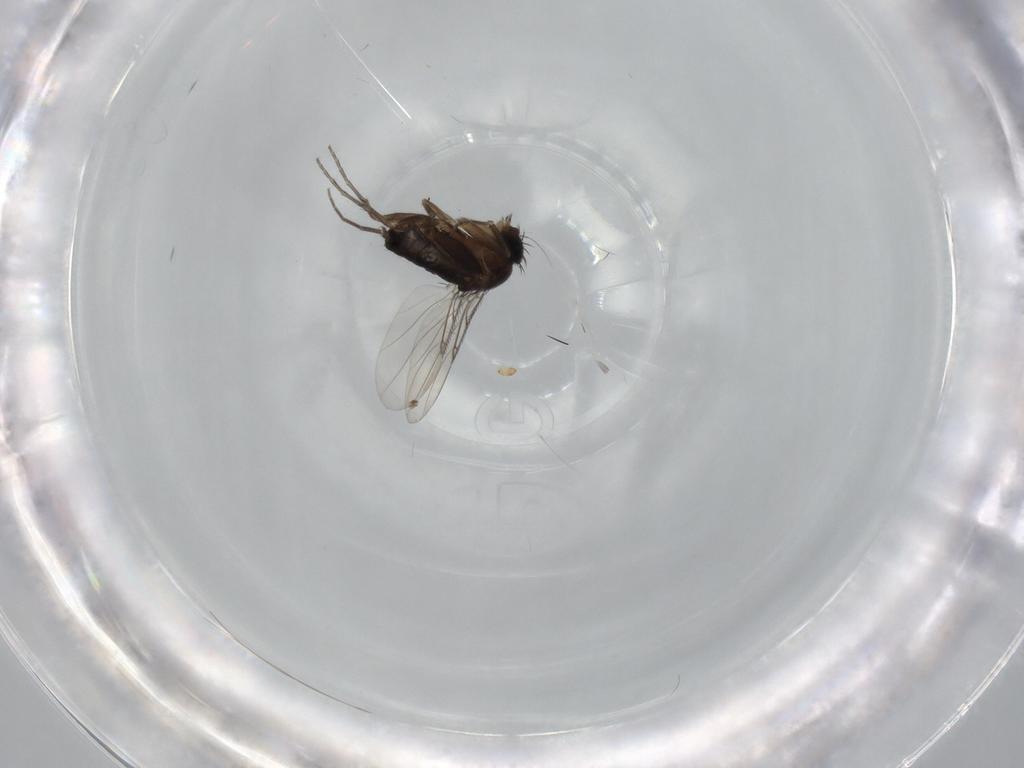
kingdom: Animalia
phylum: Arthropoda
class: Insecta
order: Diptera
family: Phoridae
